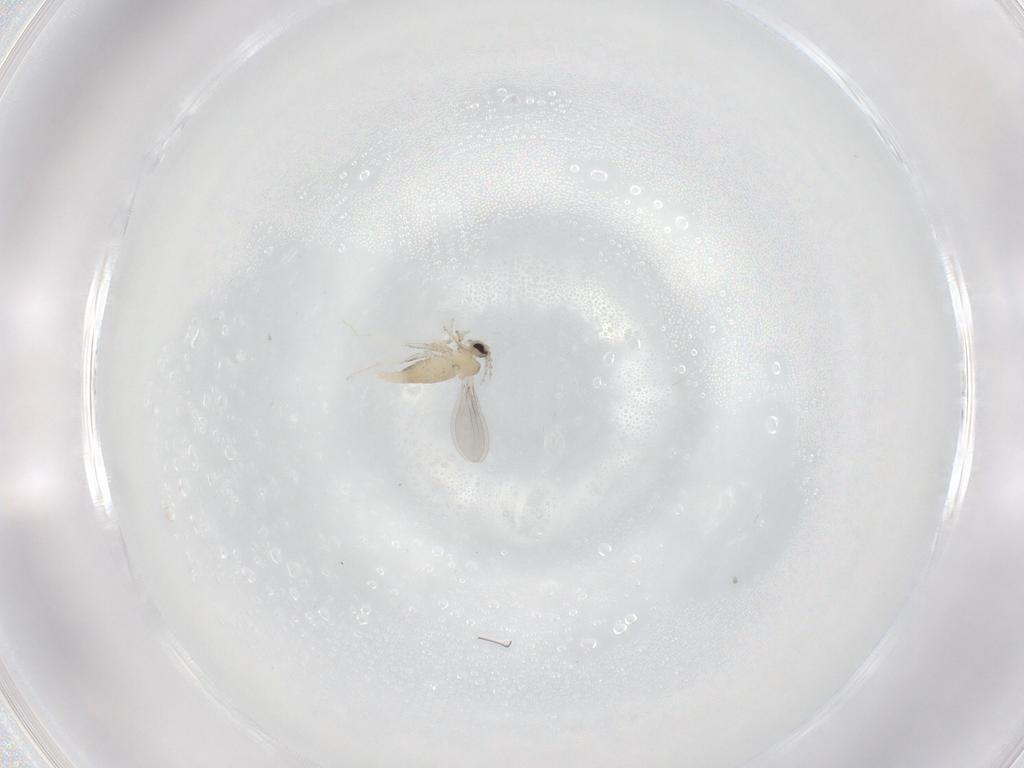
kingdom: Animalia
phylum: Arthropoda
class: Insecta
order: Diptera
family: Cecidomyiidae
